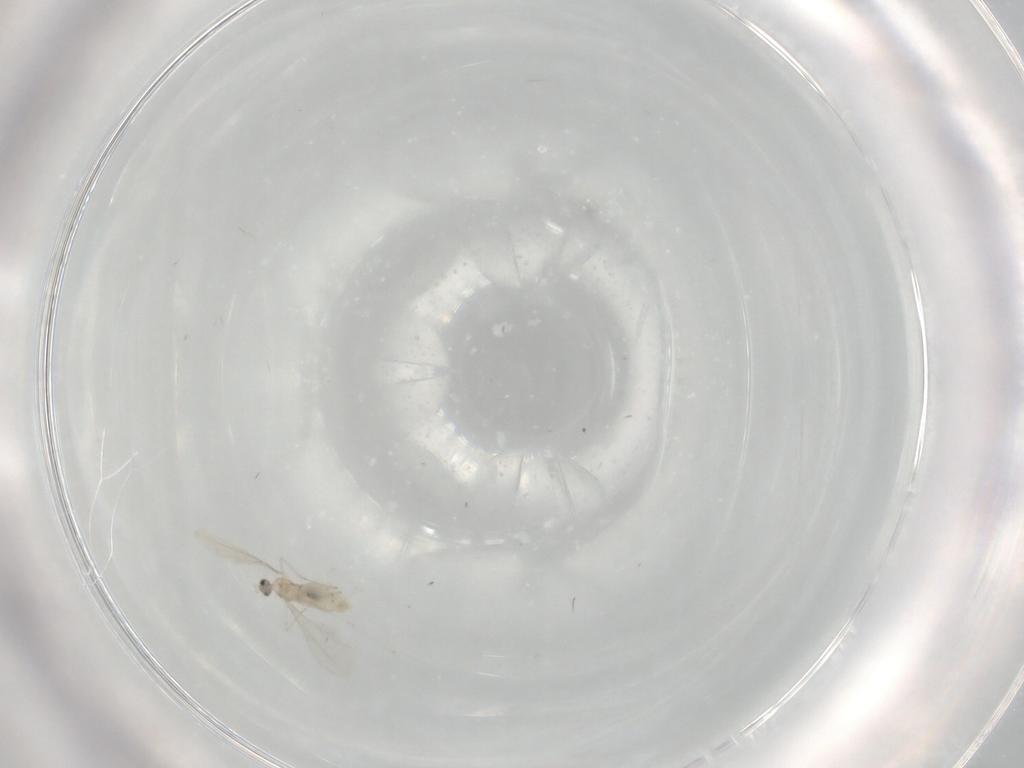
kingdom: Animalia
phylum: Arthropoda
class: Insecta
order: Diptera
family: Cecidomyiidae
